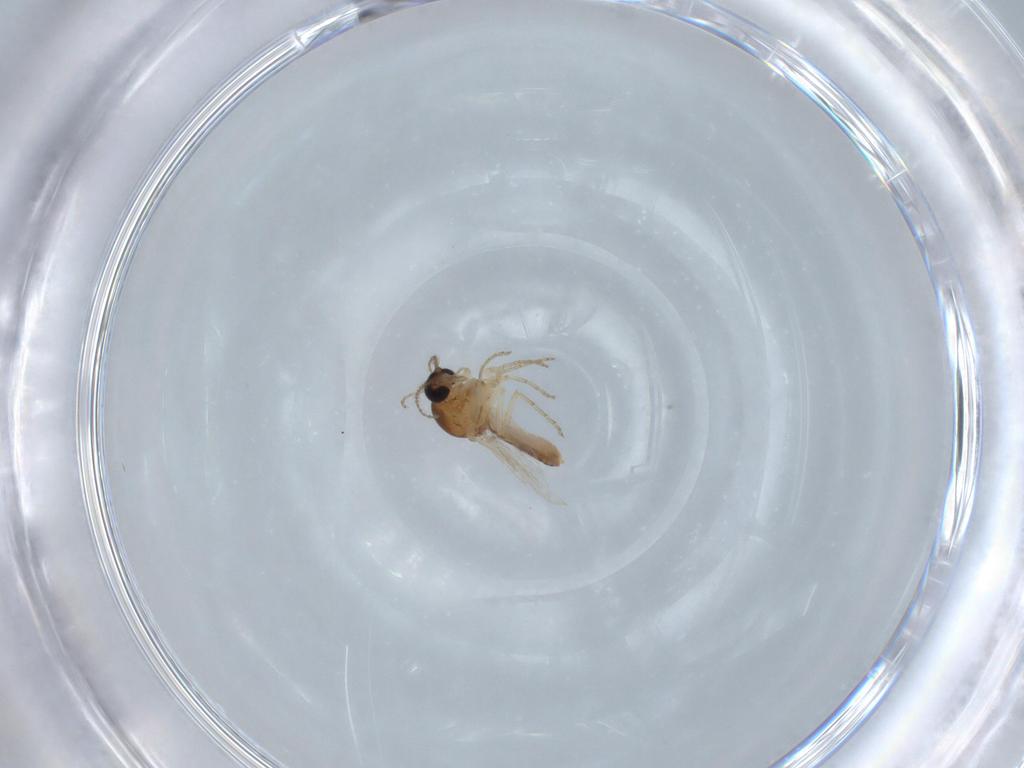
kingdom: Animalia
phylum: Arthropoda
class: Insecta
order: Diptera
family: Ceratopogonidae
